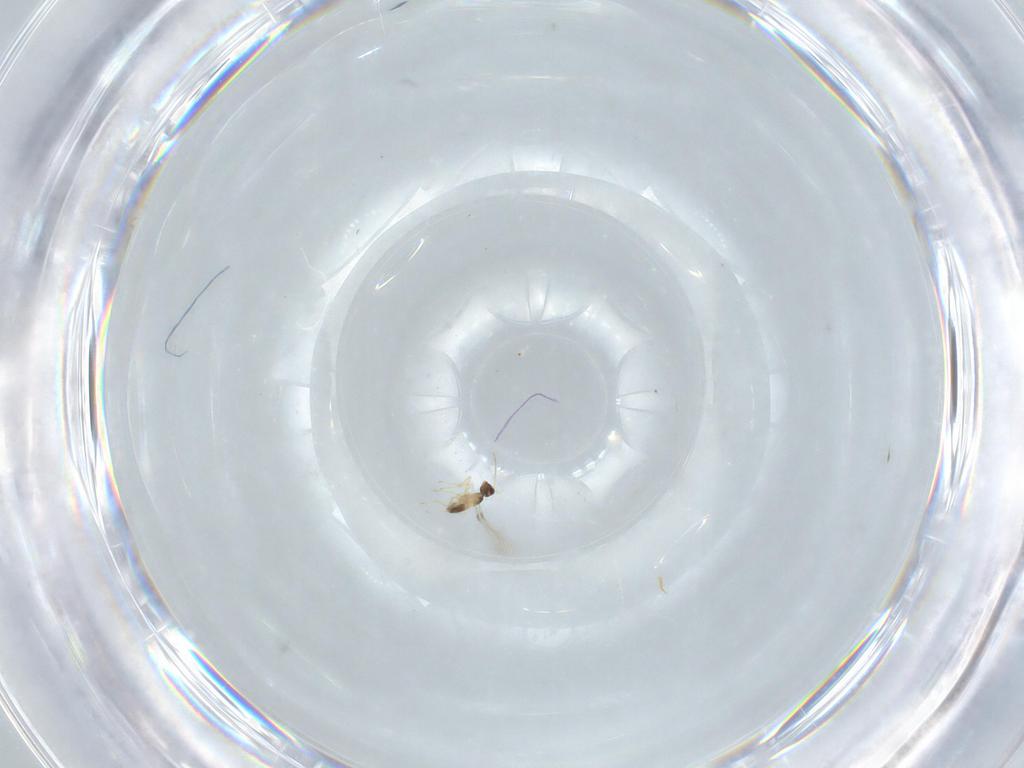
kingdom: Animalia
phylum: Arthropoda
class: Insecta
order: Hymenoptera
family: Mymaridae
